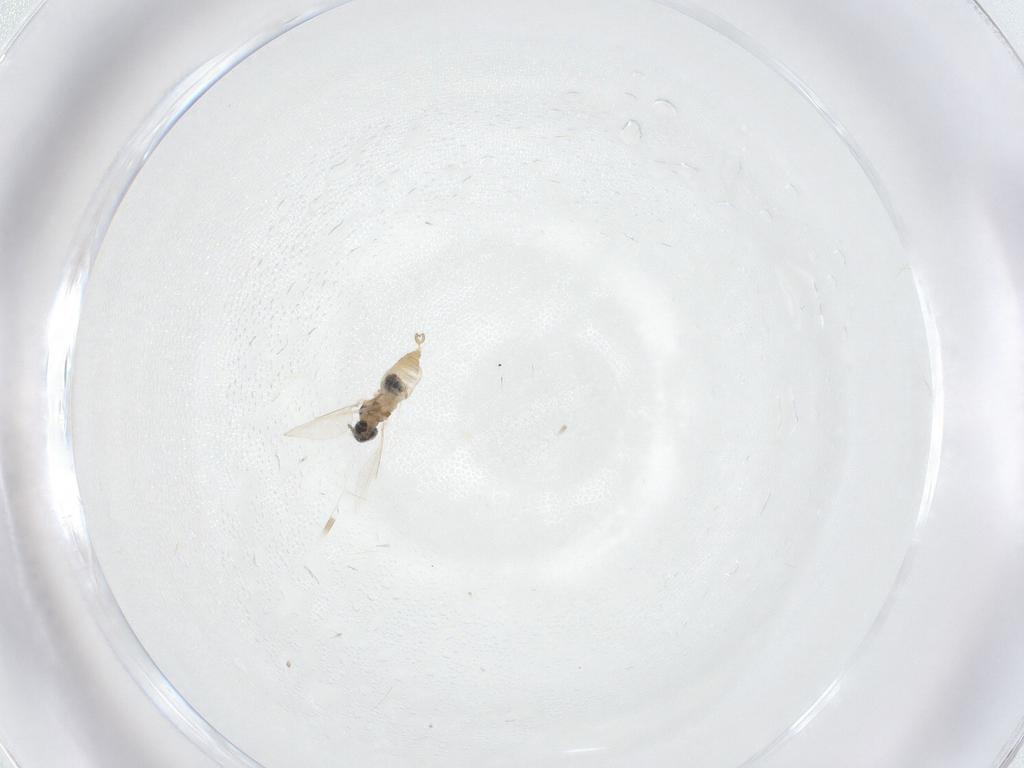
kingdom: Animalia
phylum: Arthropoda
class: Insecta
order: Diptera
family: Cecidomyiidae
